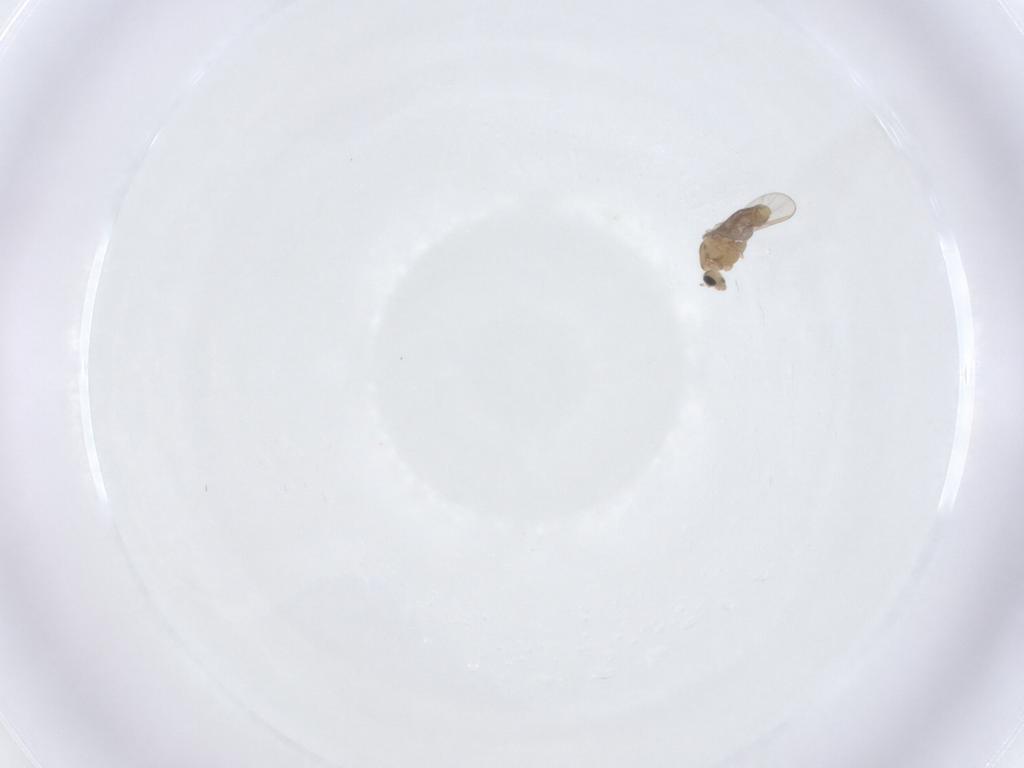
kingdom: Animalia
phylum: Arthropoda
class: Insecta
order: Diptera
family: Chironomidae
